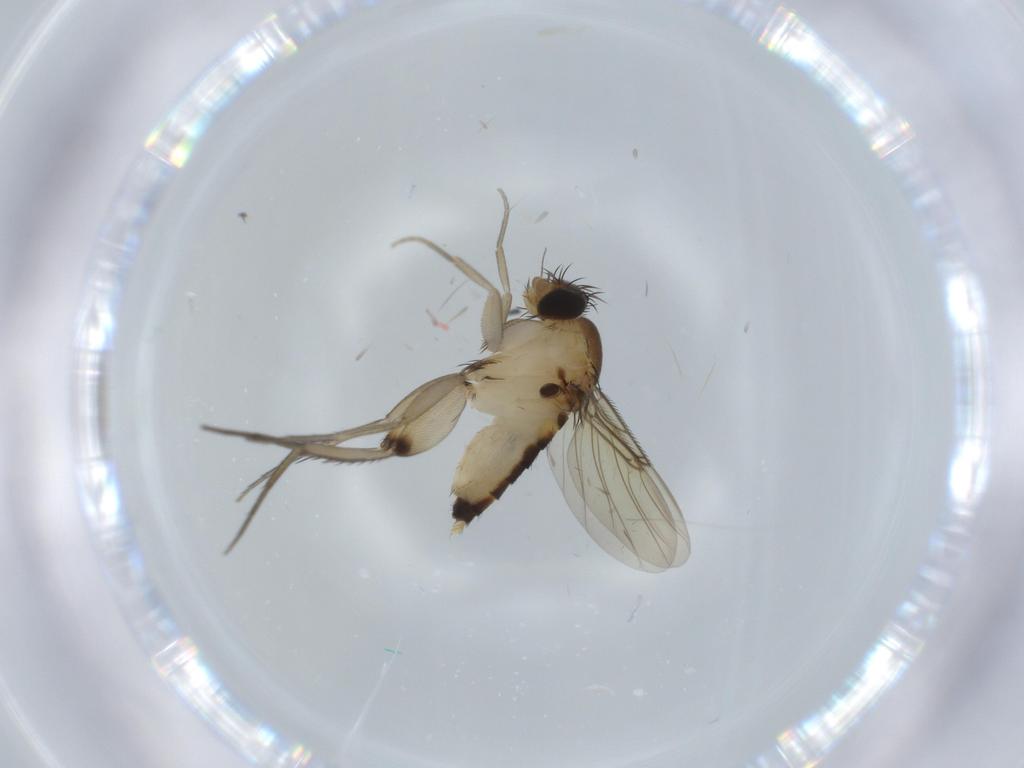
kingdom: Animalia
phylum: Arthropoda
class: Insecta
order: Diptera
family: Phoridae
